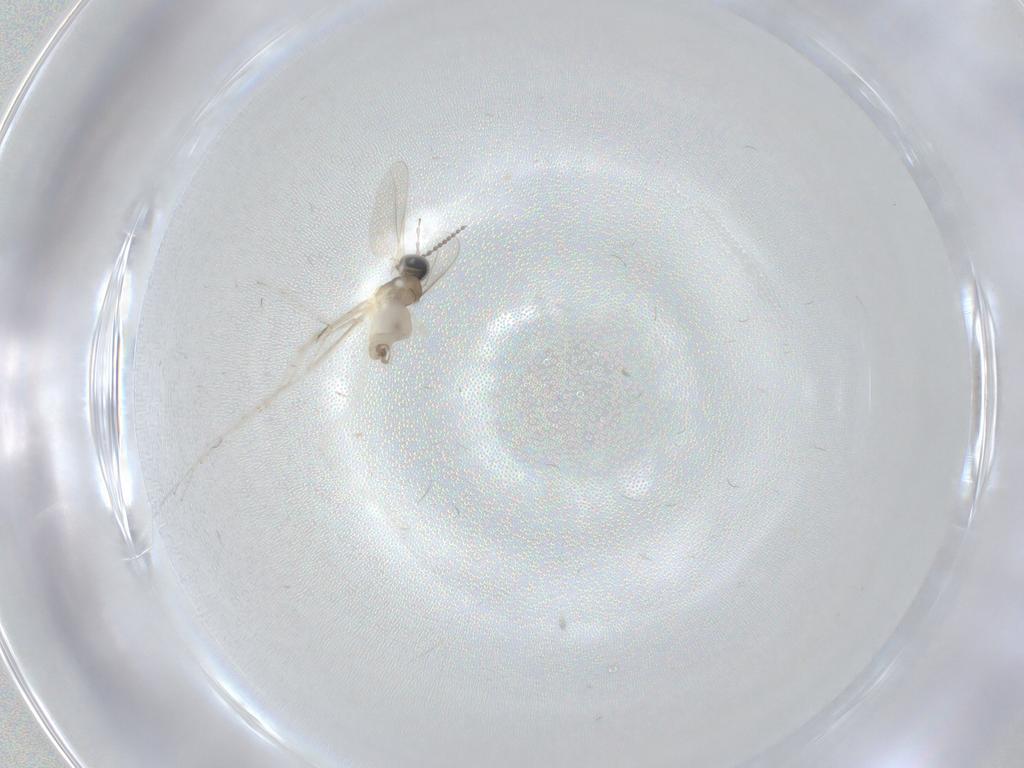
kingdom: Animalia
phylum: Arthropoda
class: Insecta
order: Diptera
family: Cecidomyiidae
